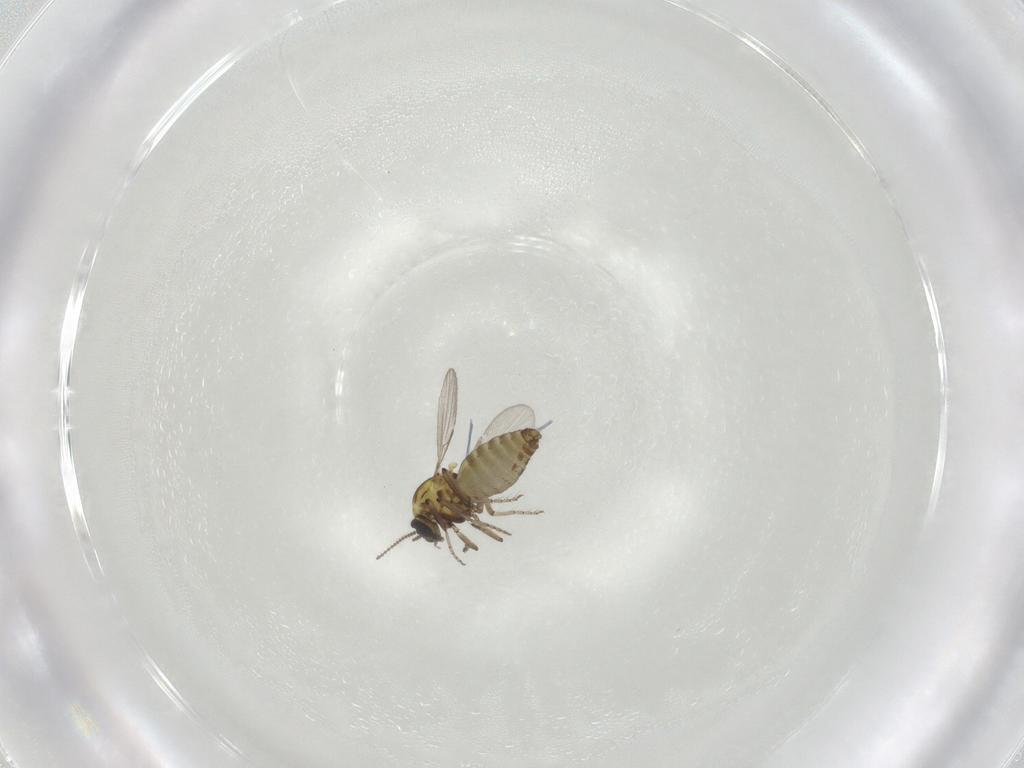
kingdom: Animalia
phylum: Arthropoda
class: Insecta
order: Diptera
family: Ceratopogonidae
